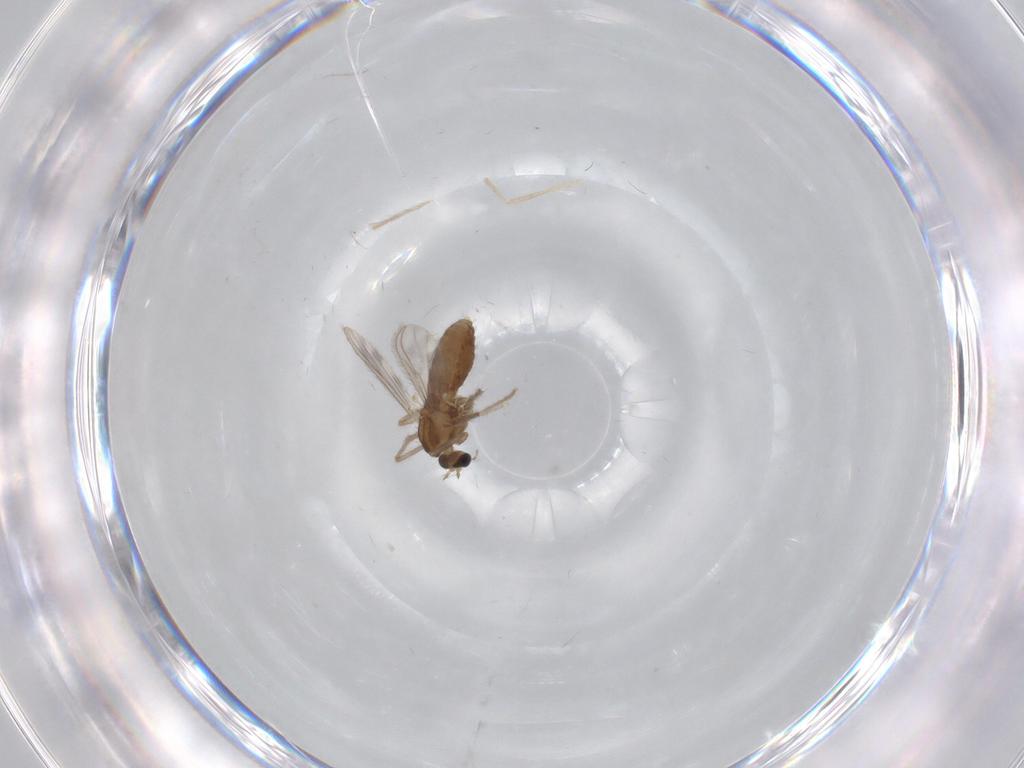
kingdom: Animalia
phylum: Arthropoda
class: Insecta
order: Diptera
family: Chironomidae
